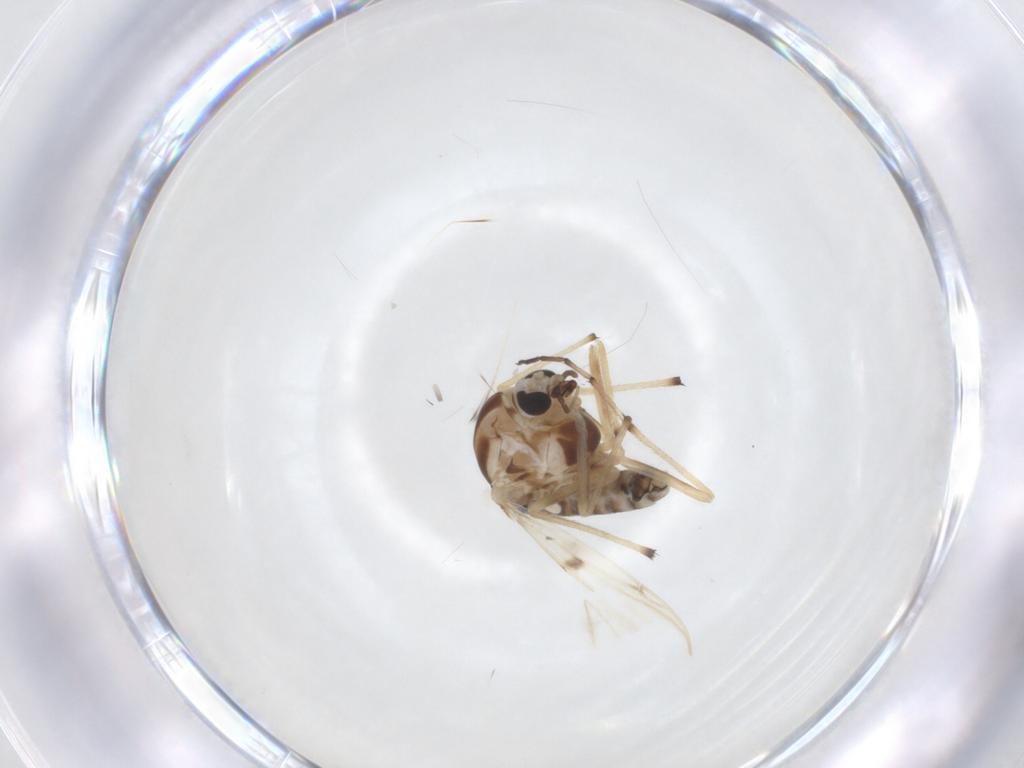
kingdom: Animalia
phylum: Arthropoda
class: Insecta
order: Diptera
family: Chironomidae
